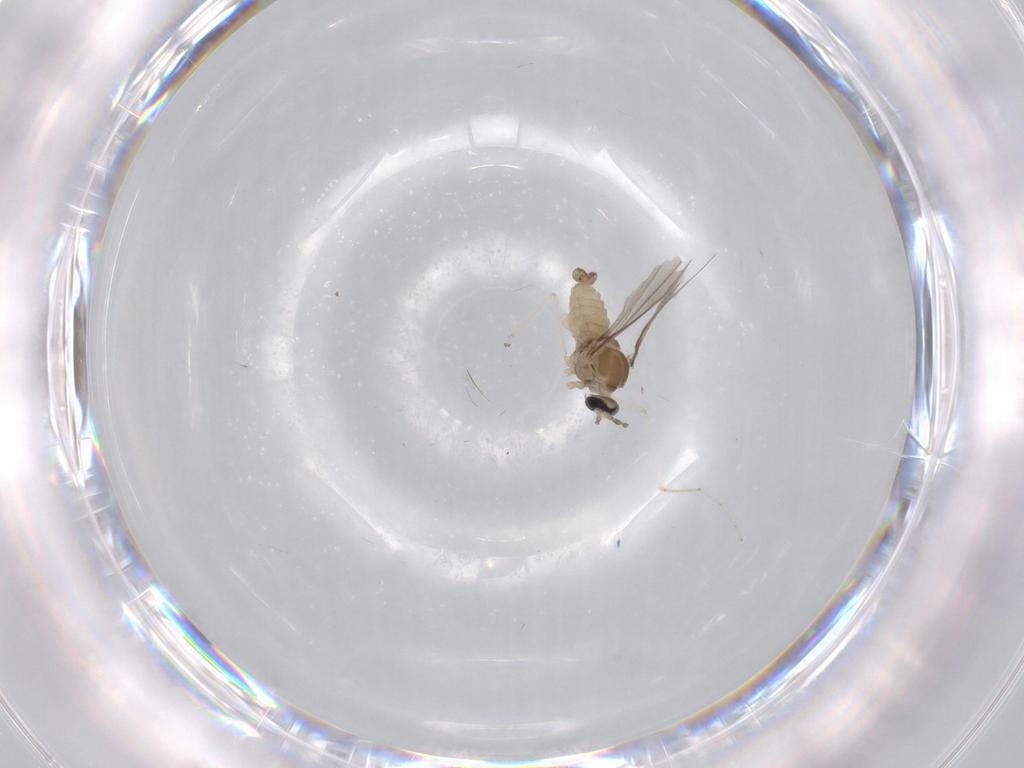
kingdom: Animalia
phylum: Arthropoda
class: Insecta
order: Diptera
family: Cecidomyiidae
